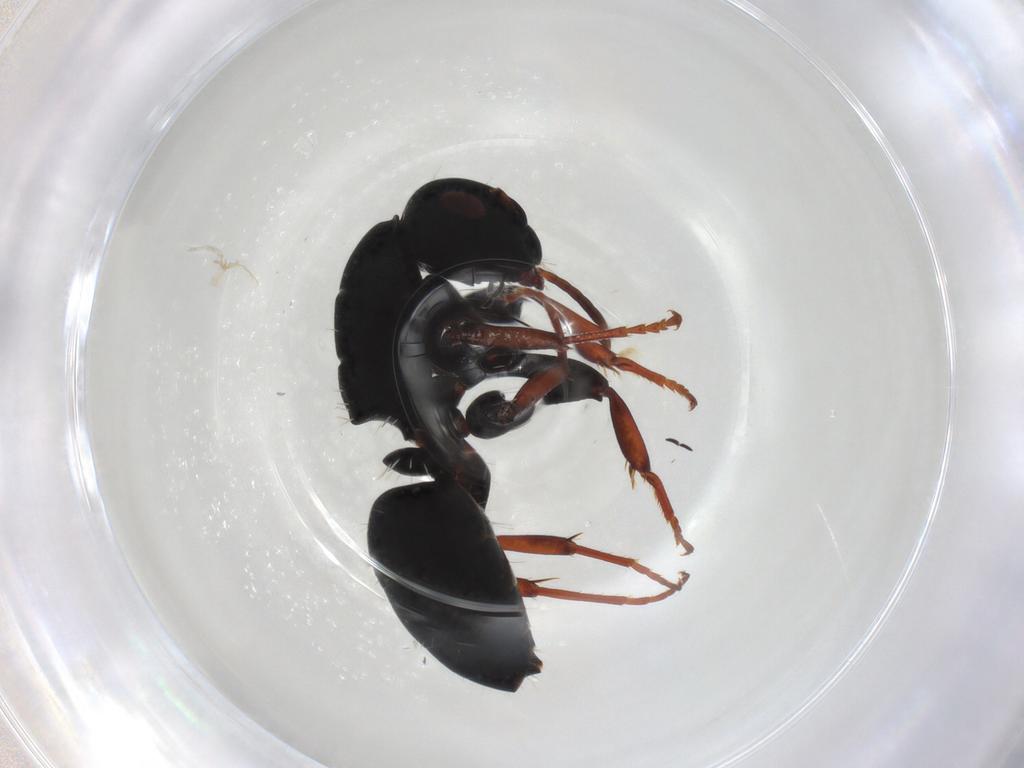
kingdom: Animalia
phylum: Arthropoda
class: Insecta
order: Hymenoptera
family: Formicidae
